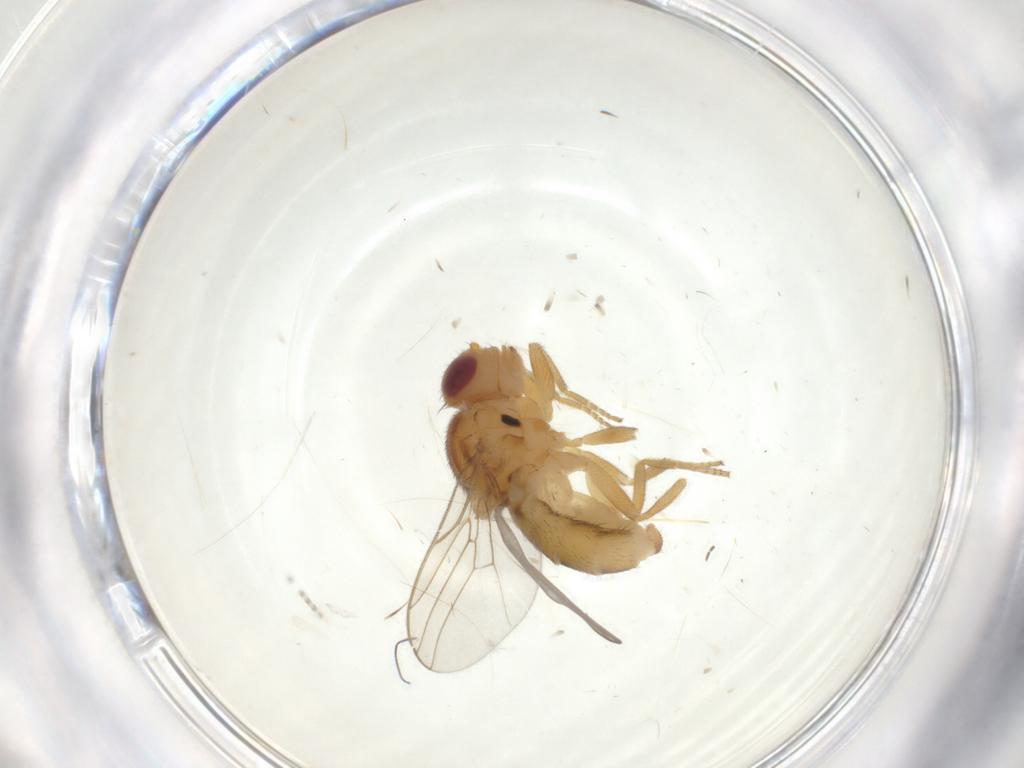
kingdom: Animalia
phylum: Arthropoda
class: Insecta
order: Diptera
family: Chloropidae
